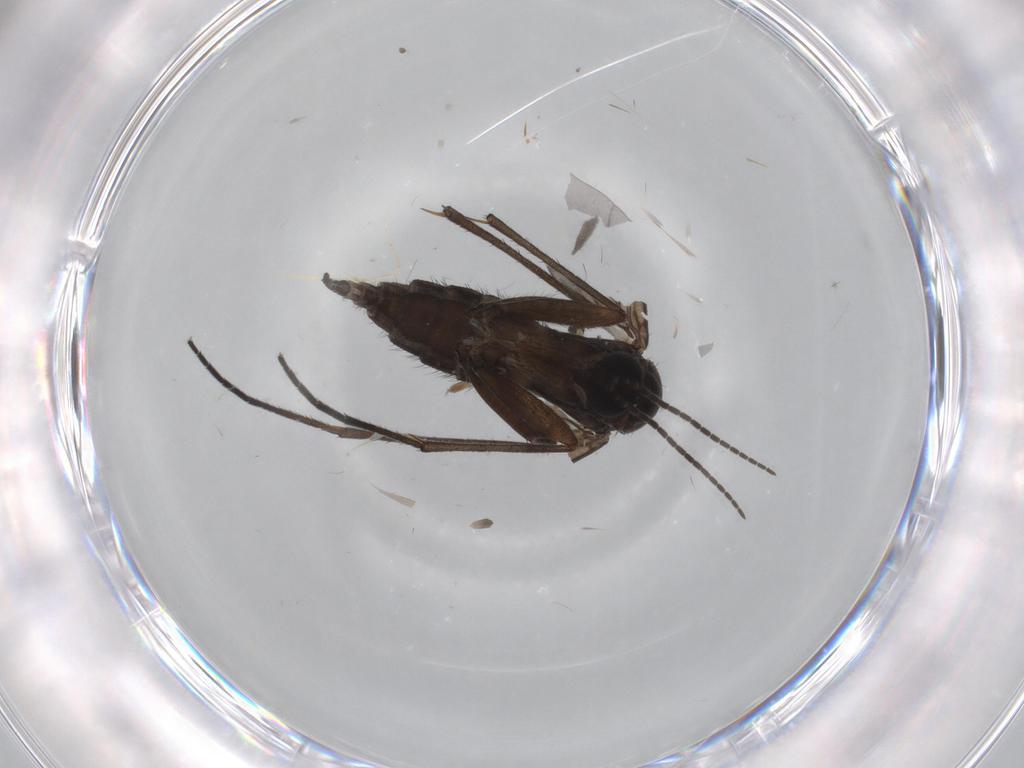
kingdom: Animalia
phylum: Arthropoda
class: Insecta
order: Diptera
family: Sciaridae
